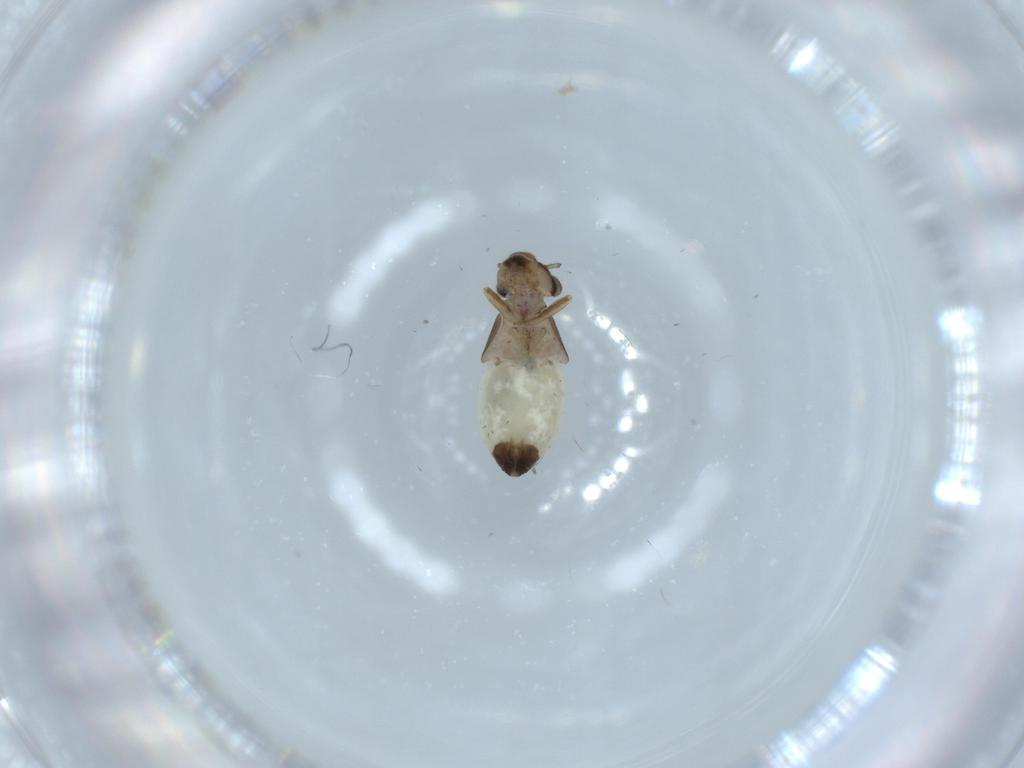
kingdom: Animalia
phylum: Arthropoda
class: Insecta
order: Psocodea
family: Lepidopsocidae
